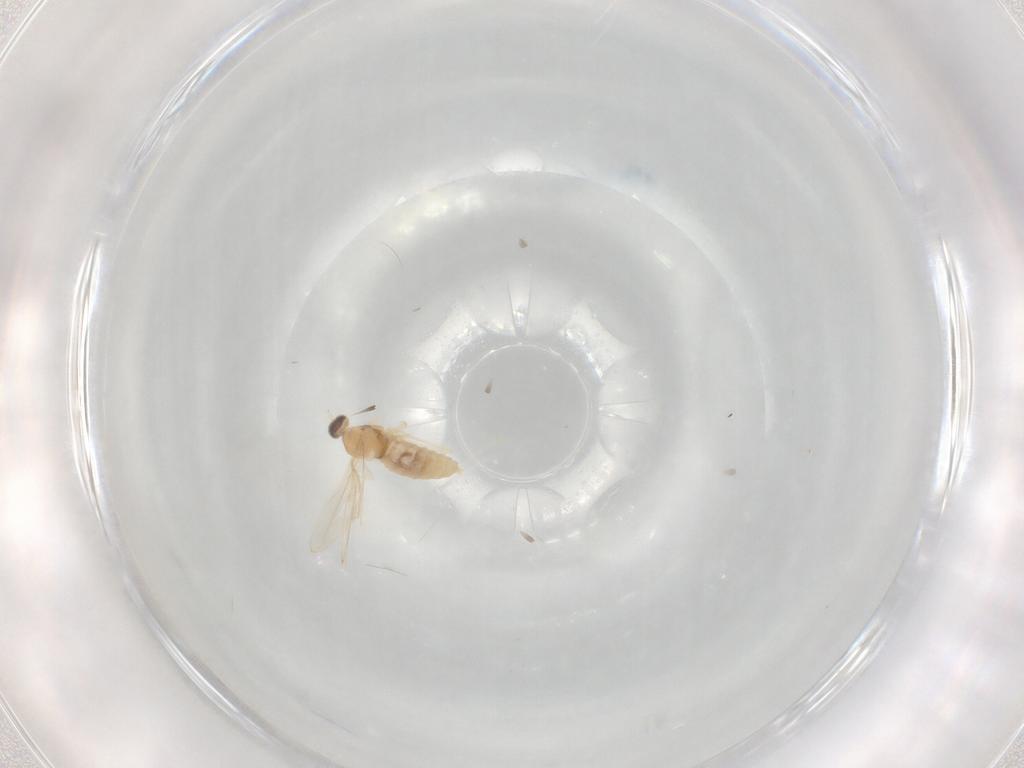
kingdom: Animalia
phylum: Arthropoda
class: Insecta
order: Diptera
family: Cecidomyiidae
